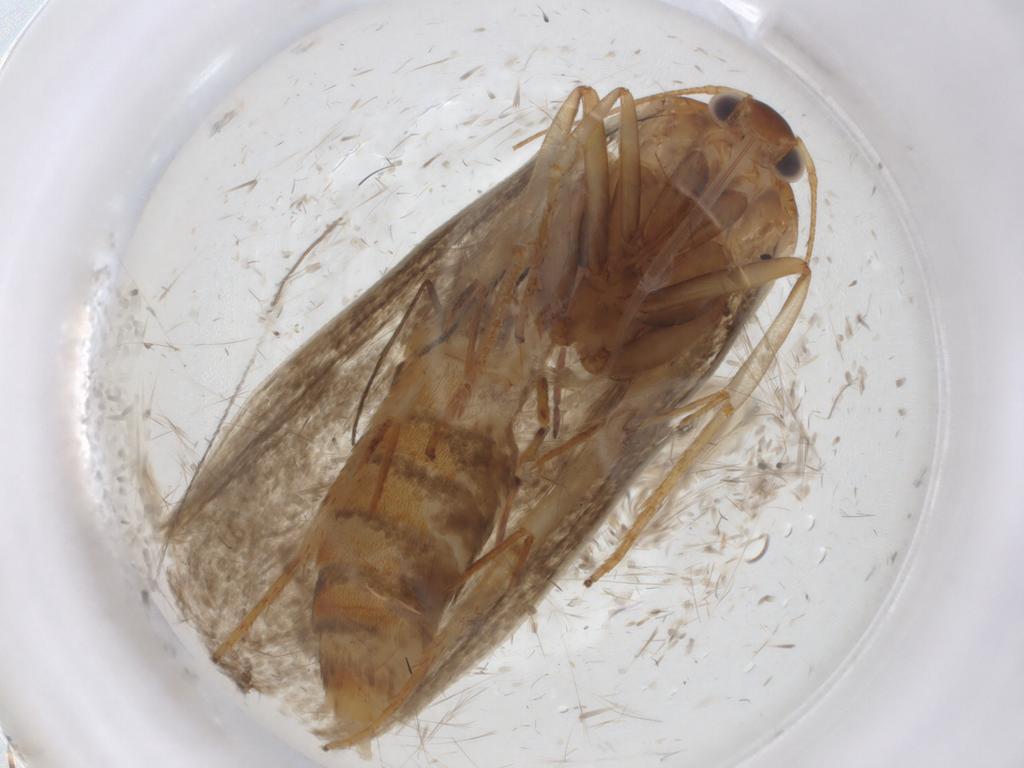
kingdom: Animalia
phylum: Arthropoda
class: Insecta
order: Lepidoptera
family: Oecophoridae
